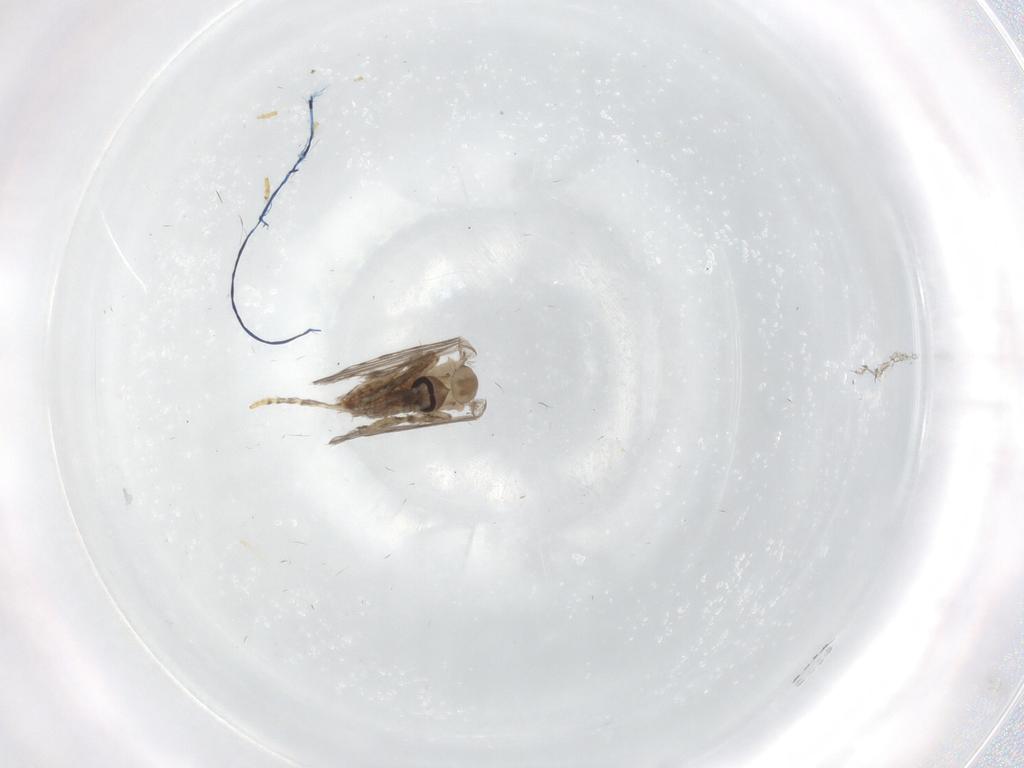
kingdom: Animalia
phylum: Arthropoda
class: Insecta
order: Diptera
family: Psychodidae
